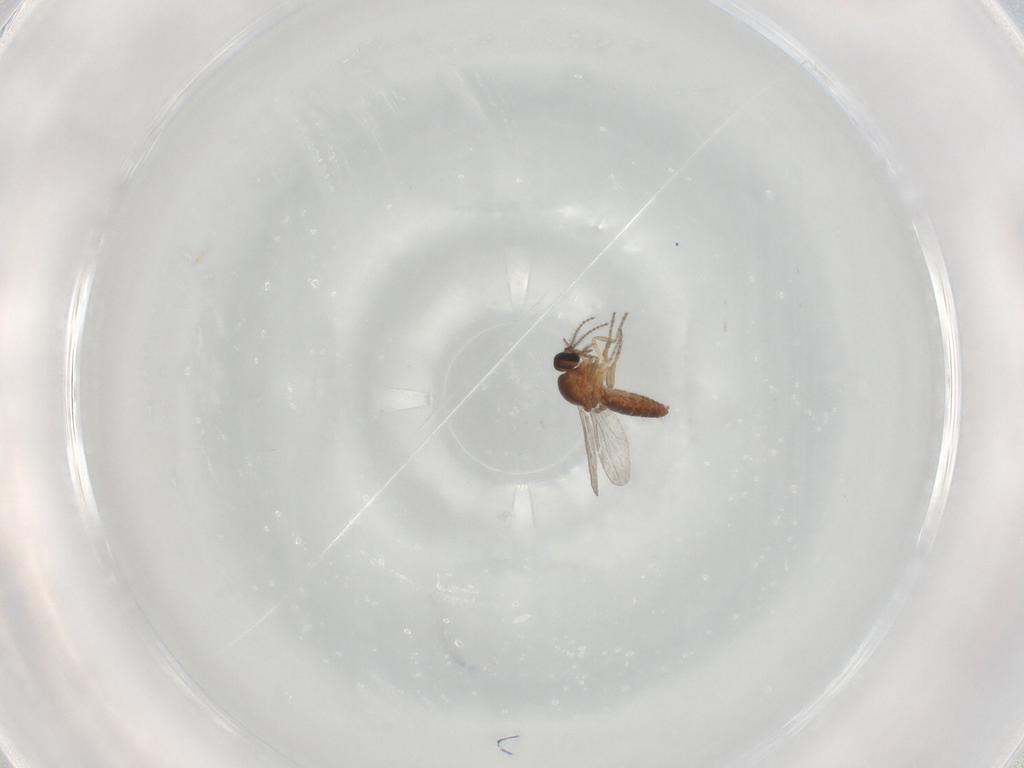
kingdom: Animalia
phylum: Arthropoda
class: Insecta
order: Diptera
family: Ceratopogonidae
